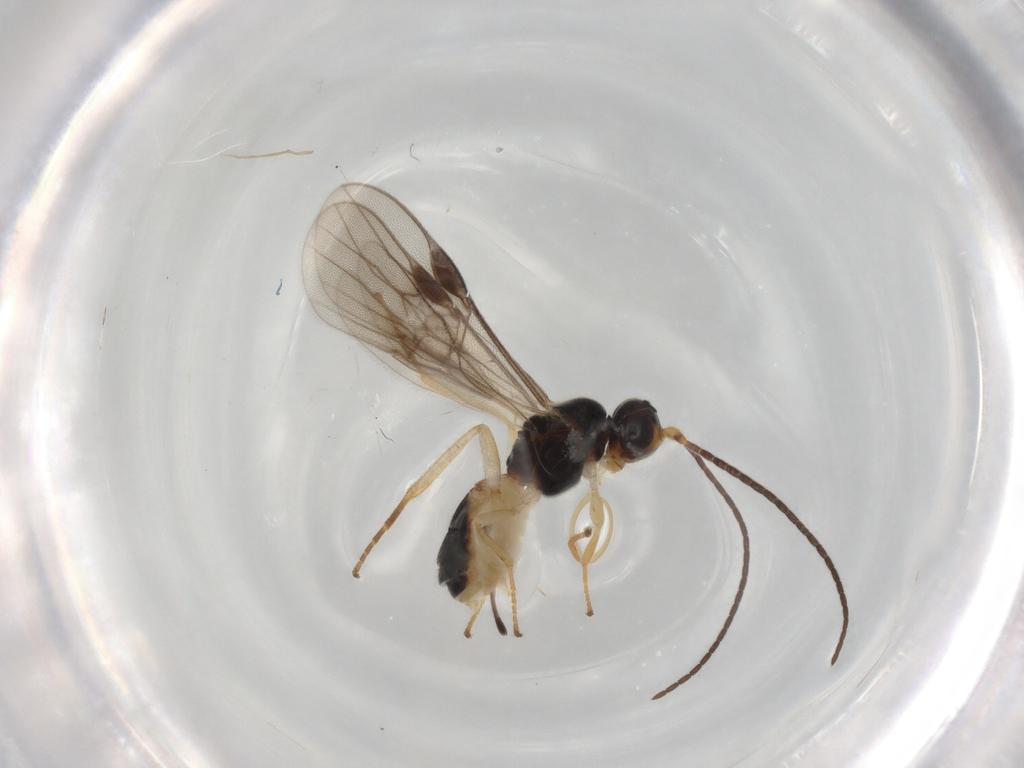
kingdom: Animalia
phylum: Arthropoda
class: Insecta
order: Hymenoptera
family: Braconidae
